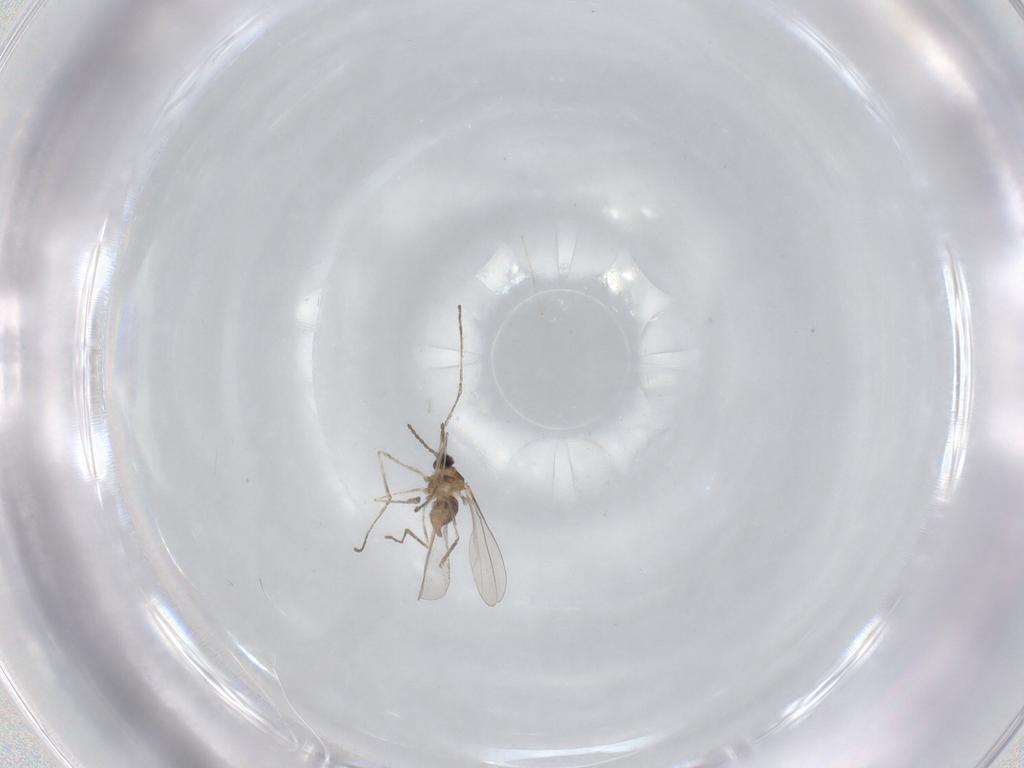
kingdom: Animalia
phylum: Arthropoda
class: Insecta
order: Diptera
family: Cecidomyiidae
